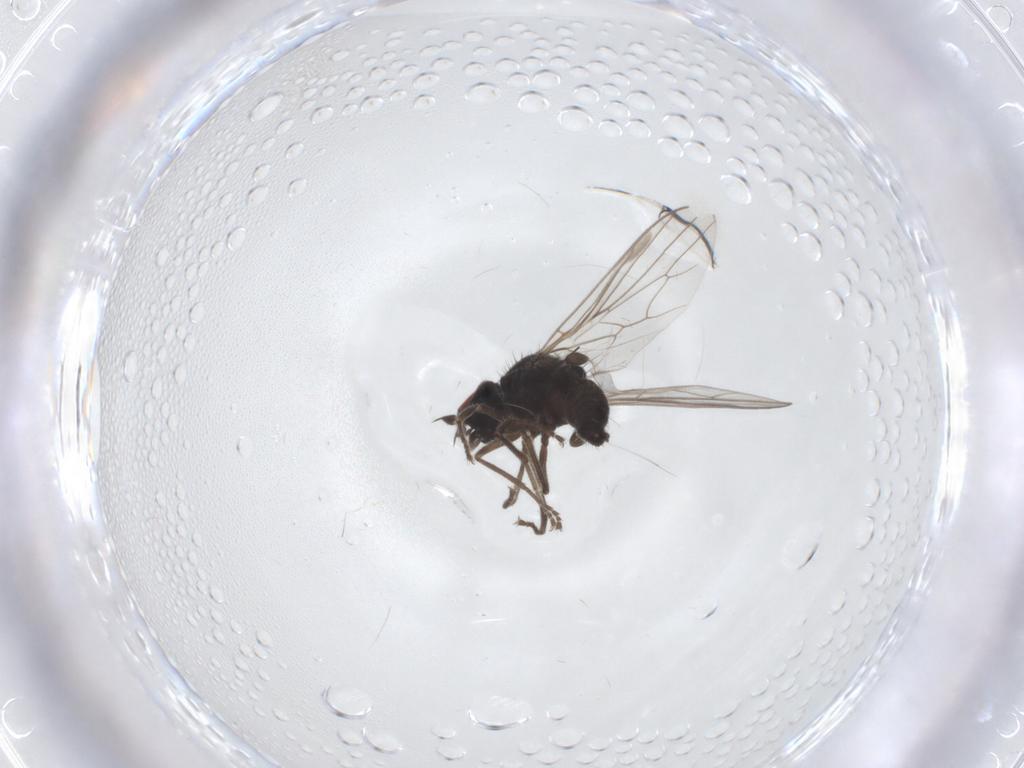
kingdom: Animalia
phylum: Arthropoda
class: Insecta
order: Diptera
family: Hybotidae
